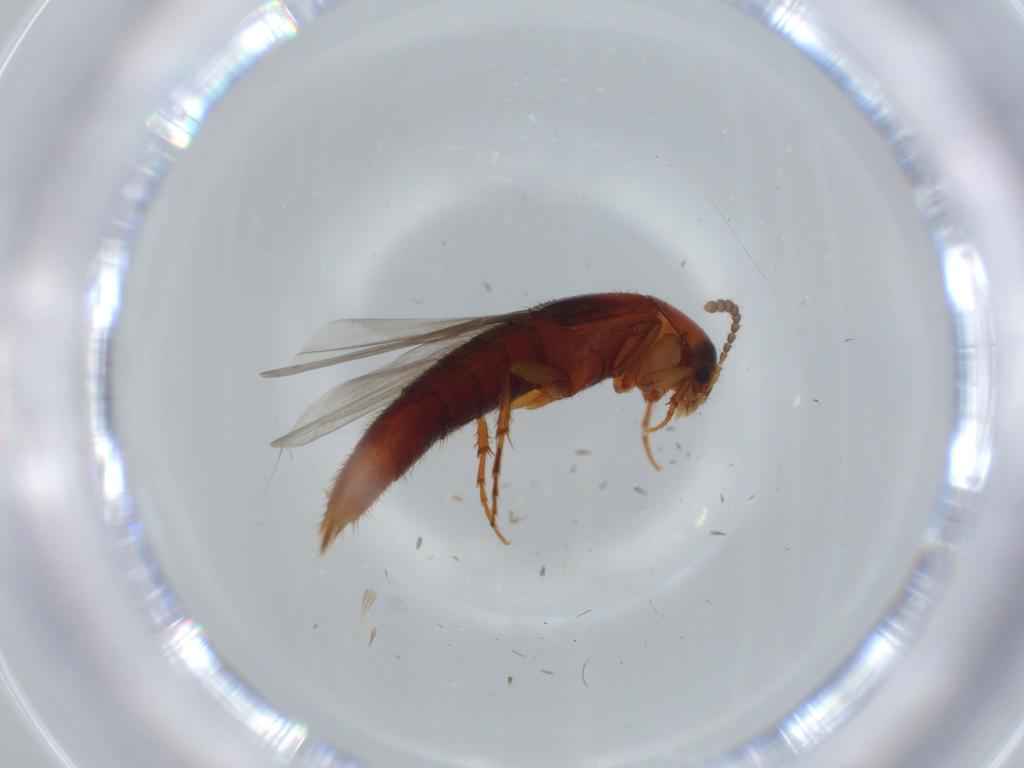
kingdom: Animalia
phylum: Arthropoda
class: Insecta
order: Coleoptera
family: Staphylinidae
